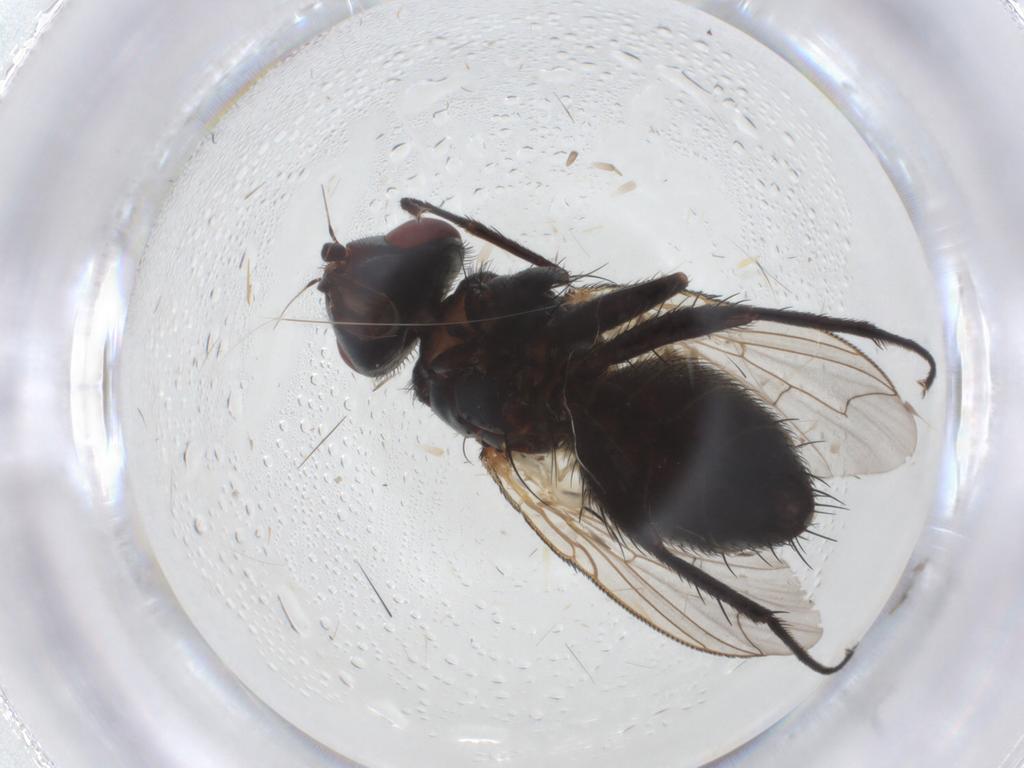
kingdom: Animalia
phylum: Arthropoda
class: Insecta
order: Diptera
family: Sarcophagidae
